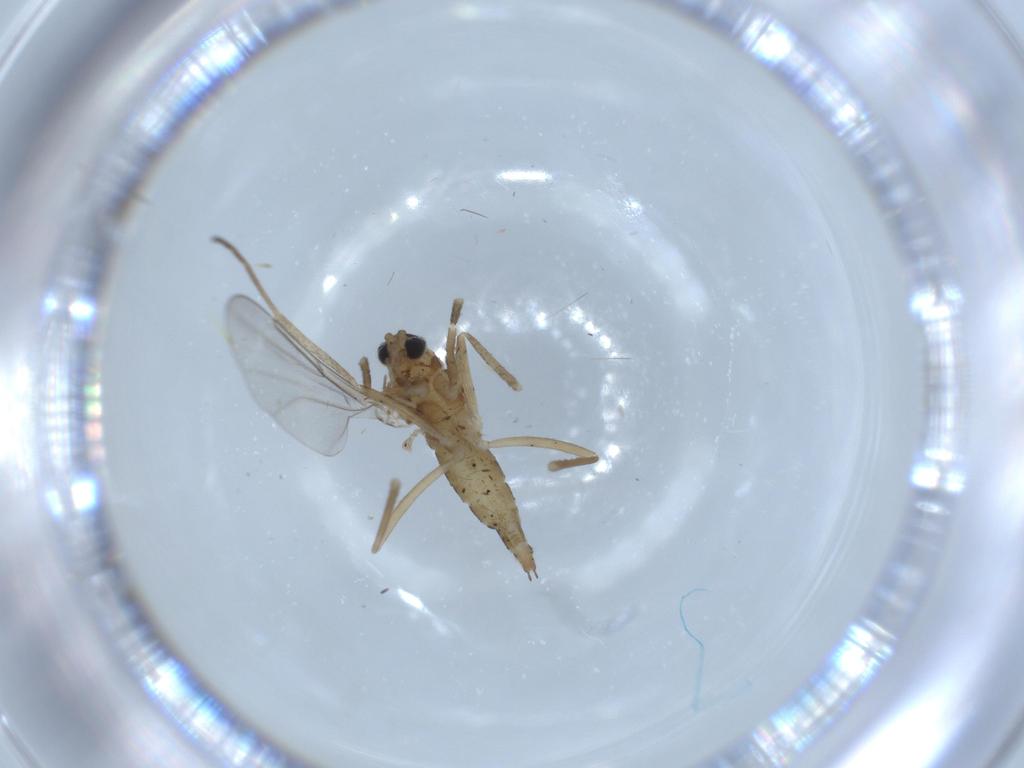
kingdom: Animalia
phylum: Arthropoda
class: Insecta
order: Diptera
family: Cecidomyiidae
